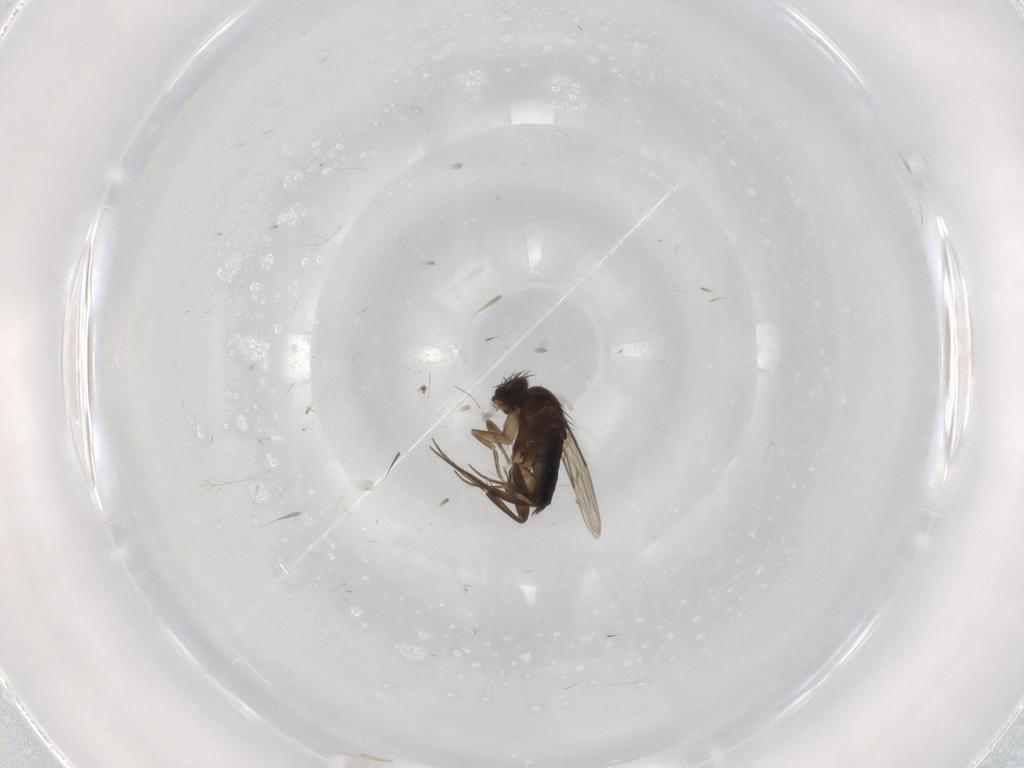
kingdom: Animalia
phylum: Arthropoda
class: Insecta
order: Diptera
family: Phoridae
